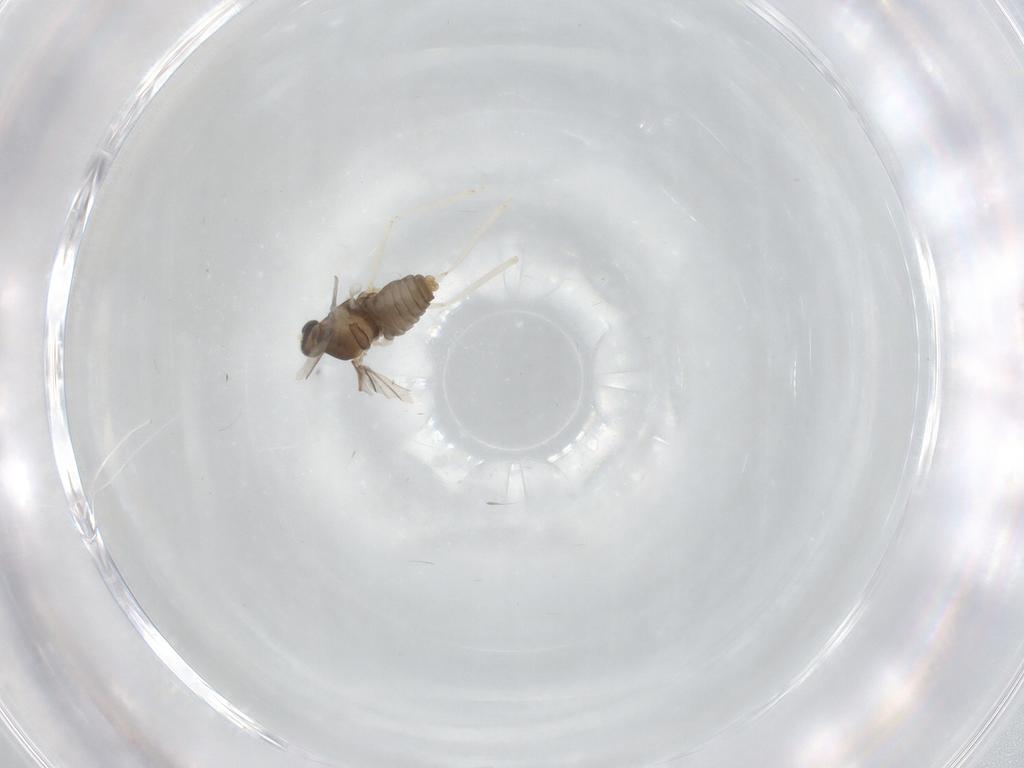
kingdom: Animalia
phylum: Arthropoda
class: Insecta
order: Diptera
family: Cecidomyiidae
